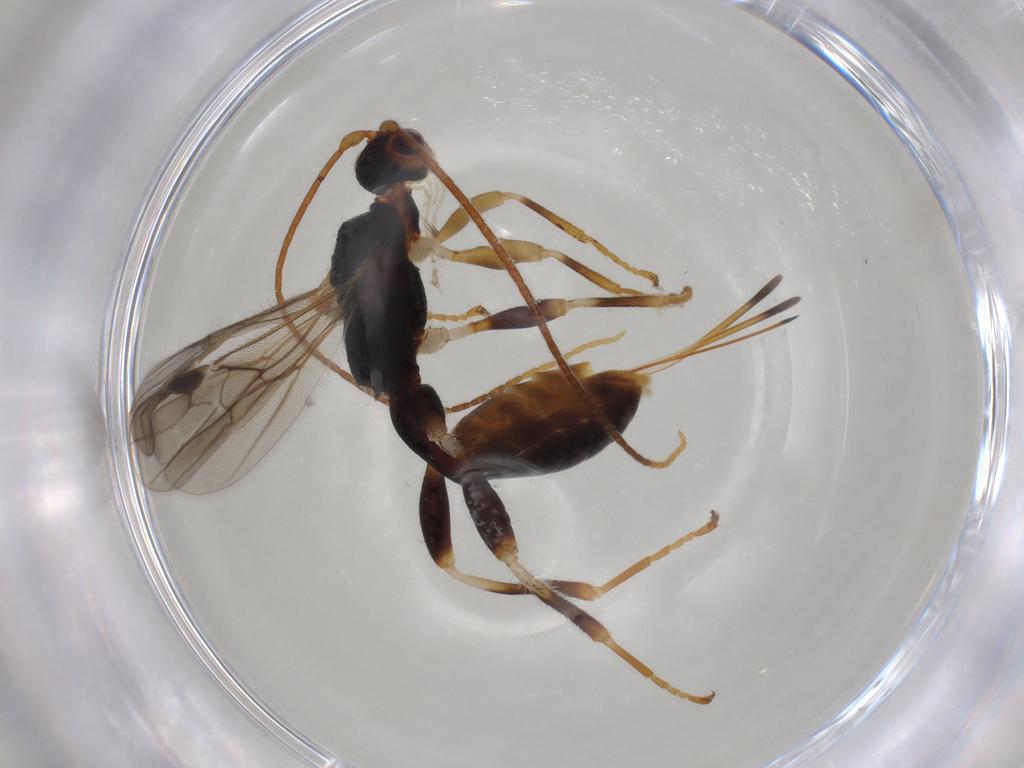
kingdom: Animalia
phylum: Arthropoda
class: Insecta
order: Hymenoptera
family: Braconidae
